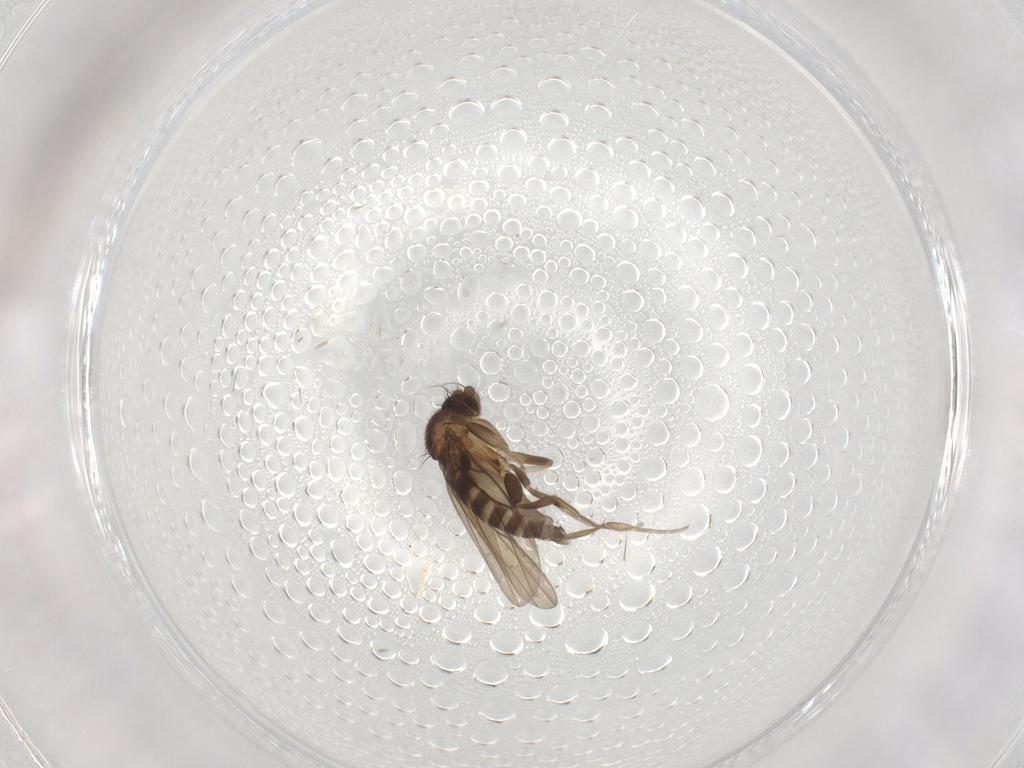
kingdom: Animalia
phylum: Arthropoda
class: Insecta
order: Diptera
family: Phoridae
